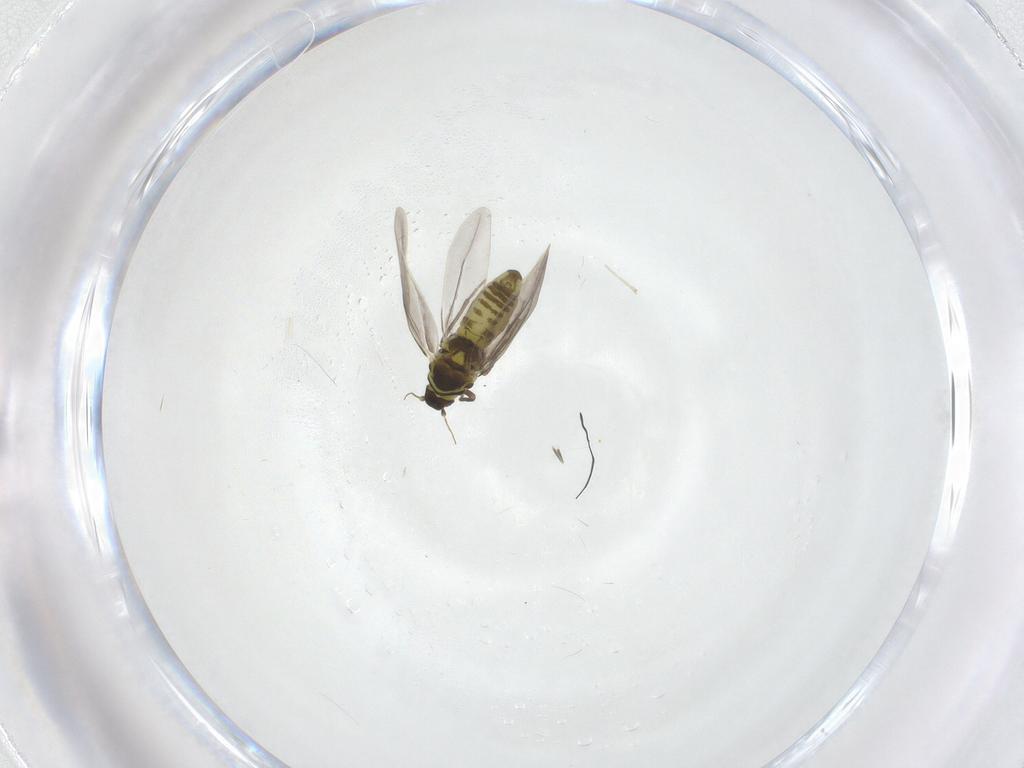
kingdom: Animalia
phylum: Arthropoda
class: Insecta
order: Hemiptera
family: Aleyrodidae
